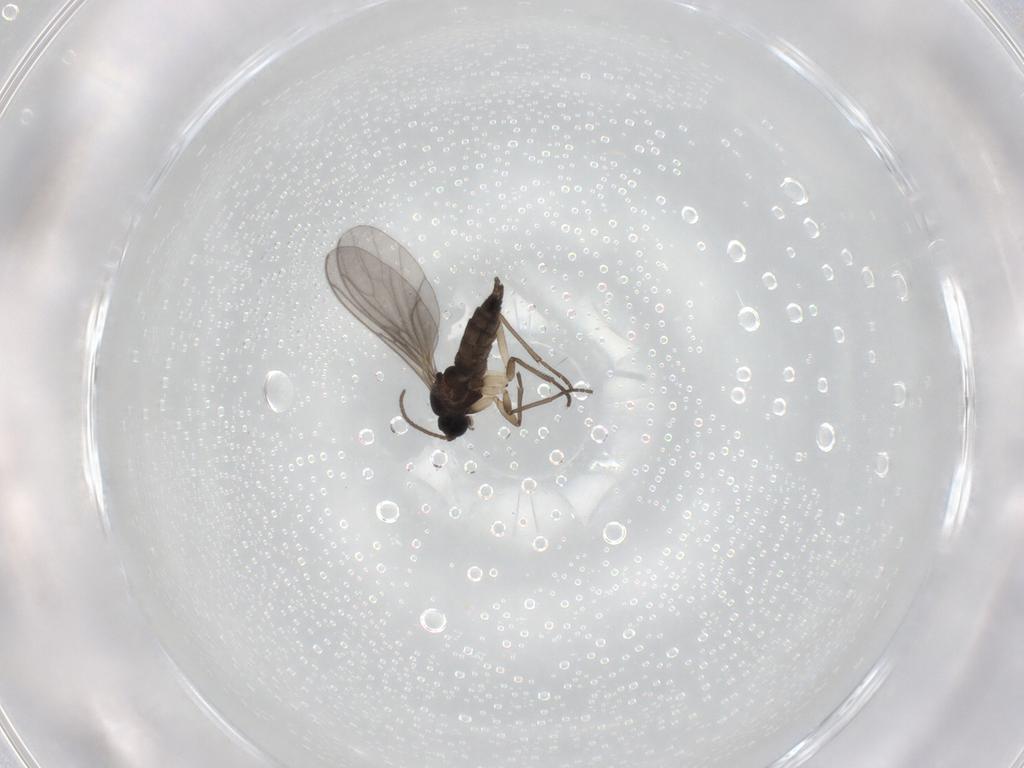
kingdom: Animalia
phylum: Arthropoda
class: Insecta
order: Diptera
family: Sciaridae
